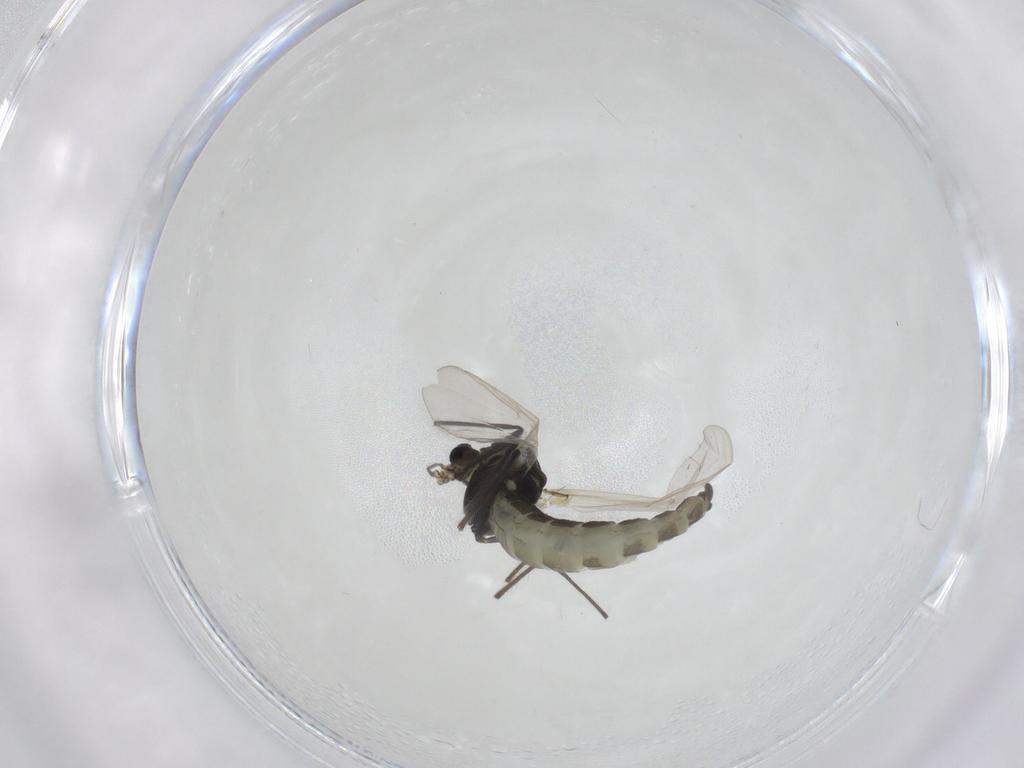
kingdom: Animalia
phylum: Arthropoda
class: Insecta
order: Diptera
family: Chironomidae
